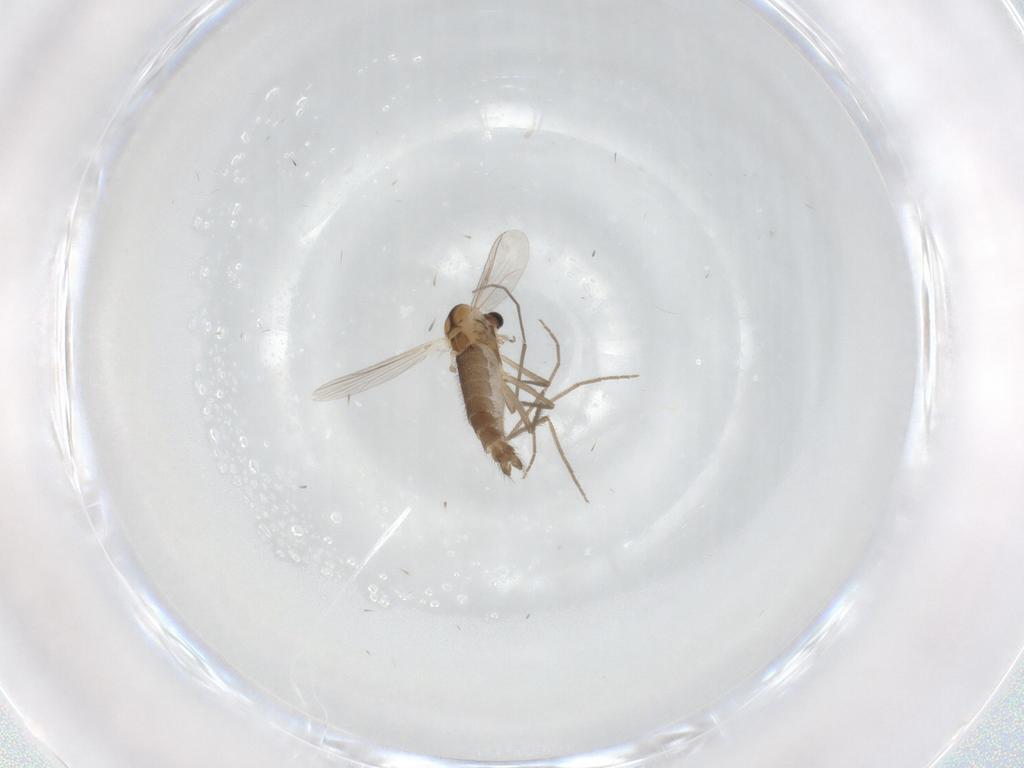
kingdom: Animalia
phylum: Arthropoda
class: Insecta
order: Diptera
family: Chironomidae
